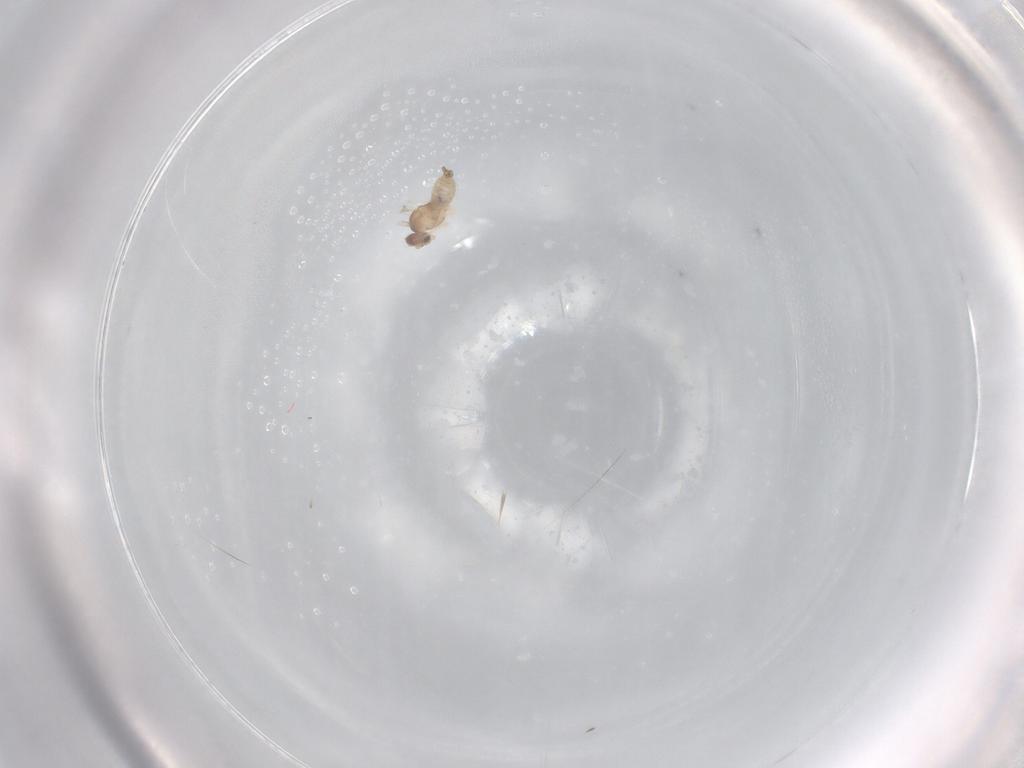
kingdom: Animalia
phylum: Arthropoda
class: Insecta
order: Diptera
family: Cecidomyiidae
